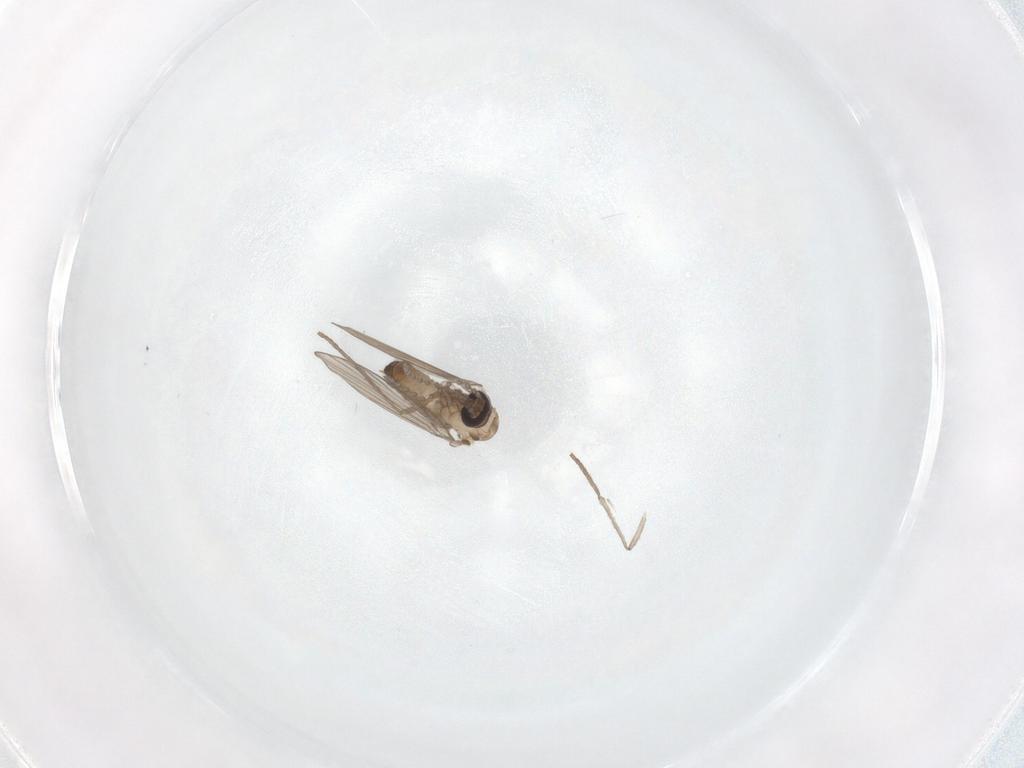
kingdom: Animalia
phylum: Arthropoda
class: Insecta
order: Diptera
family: Psychodidae
